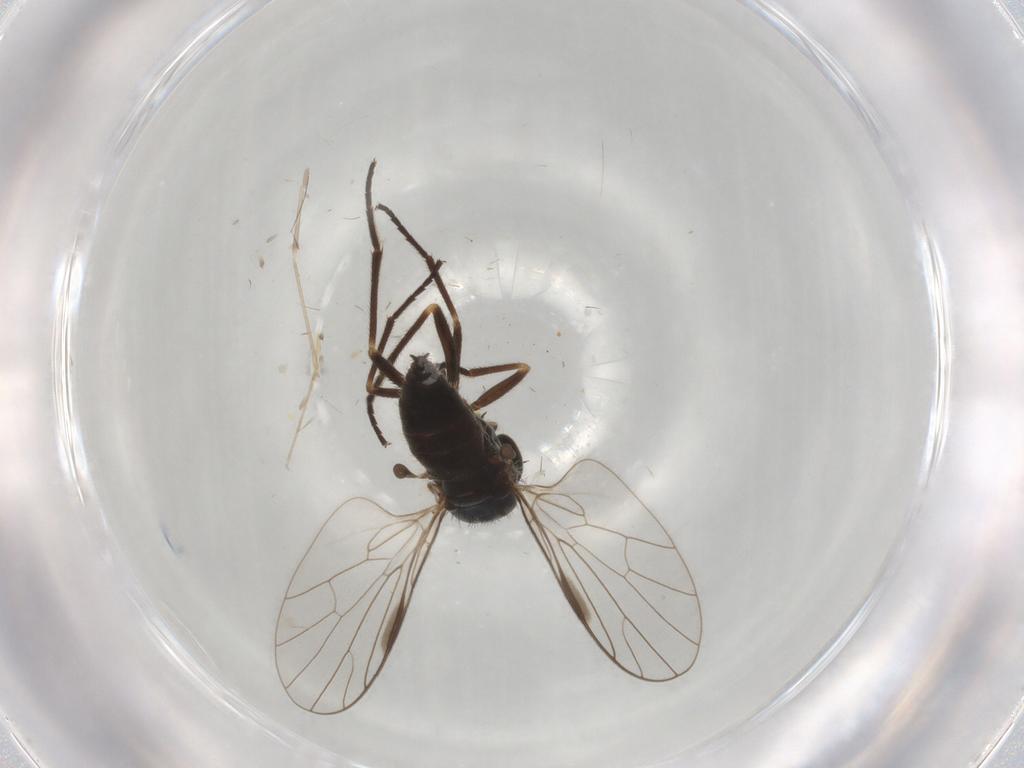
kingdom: Animalia
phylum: Arthropoda
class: Insecta
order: Diptera
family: Empididae
